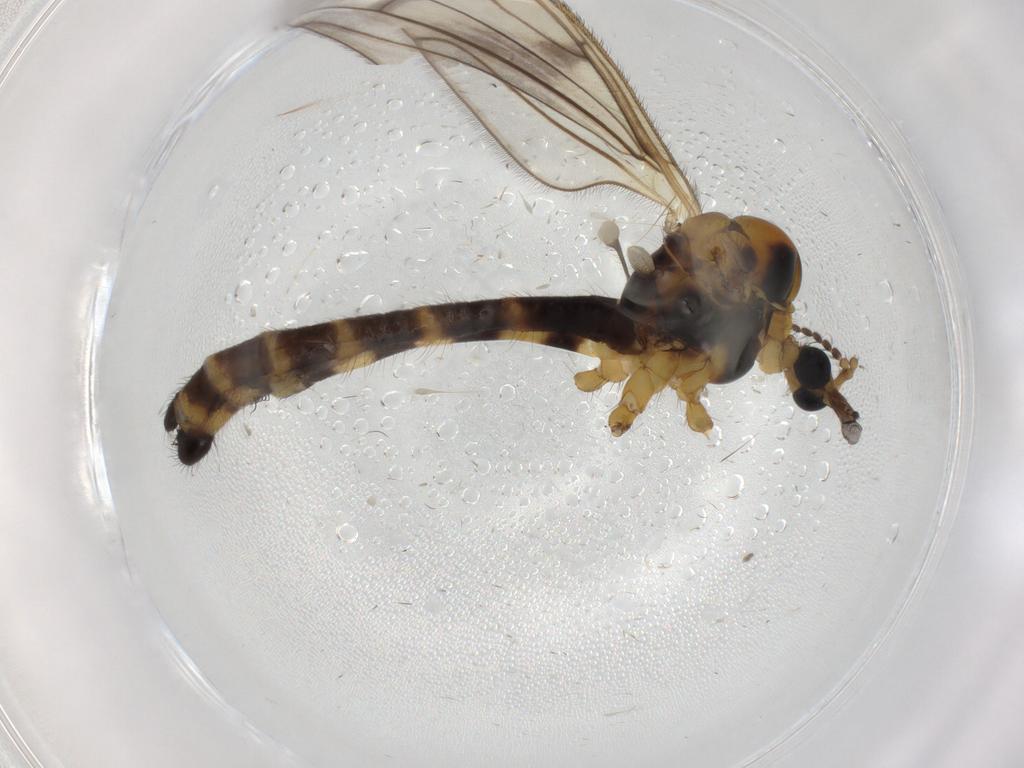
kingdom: Animalia
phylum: Arthropoda
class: Insecta
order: Diptera
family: Limoniidae
